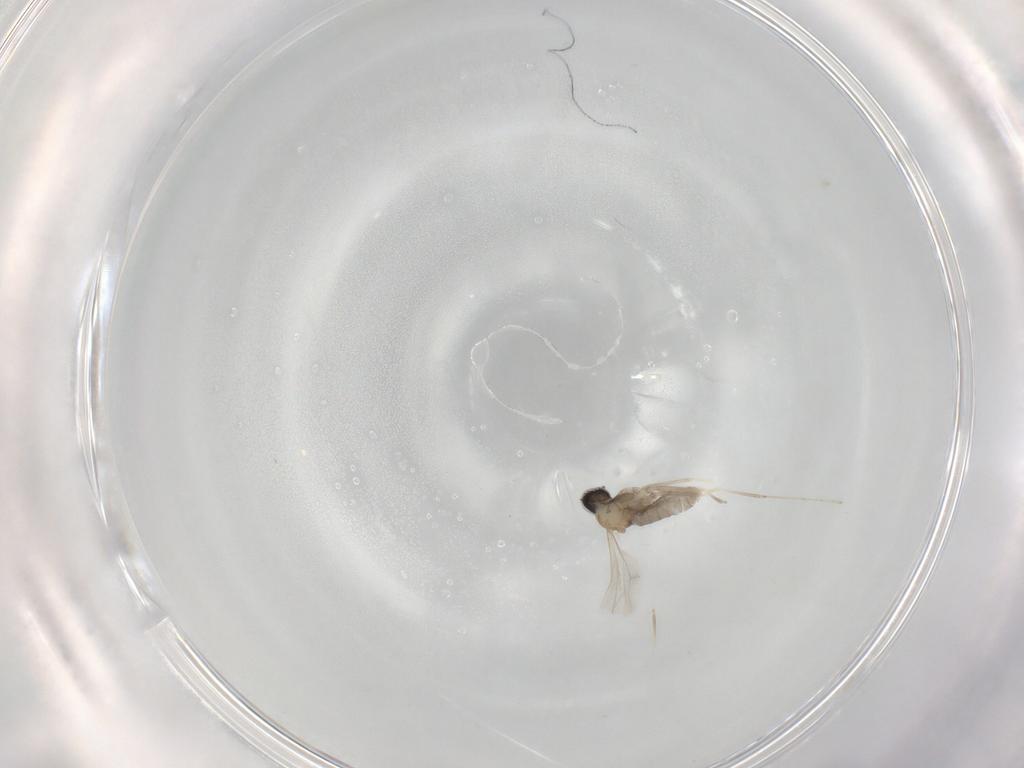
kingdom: Animalia
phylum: Arthropoda
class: Insecta
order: Diptera
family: Cecidomyiidae
